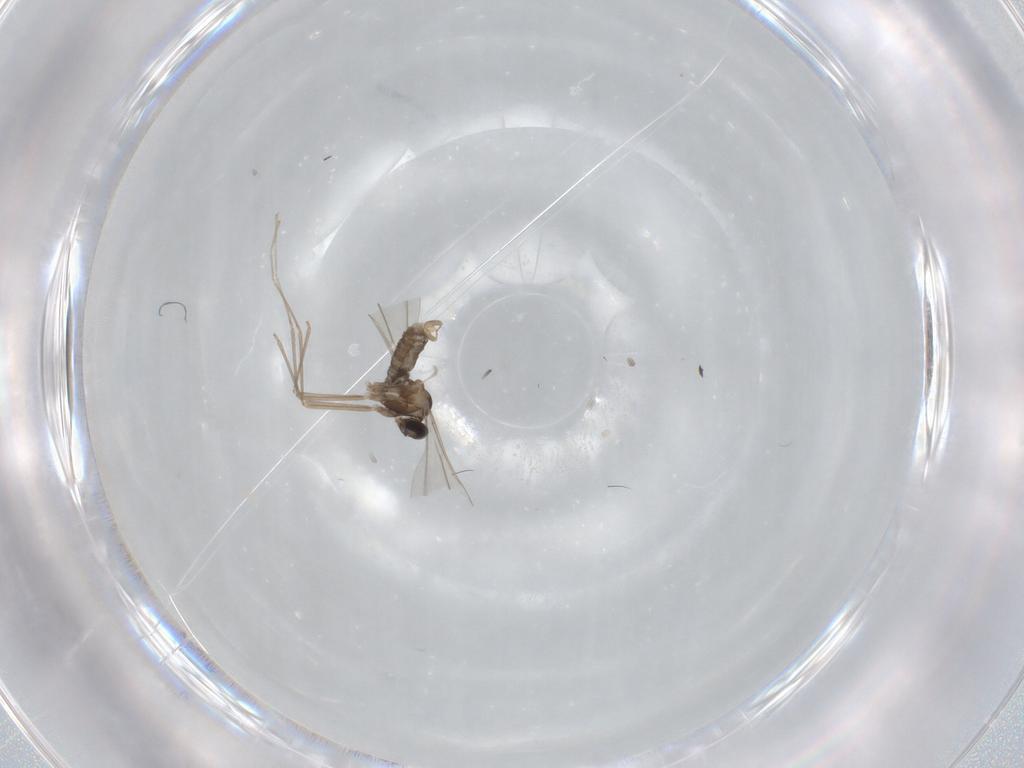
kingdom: Animalia
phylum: Arthropoda
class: Insecta
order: Diptera
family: Cecidomyiidae
